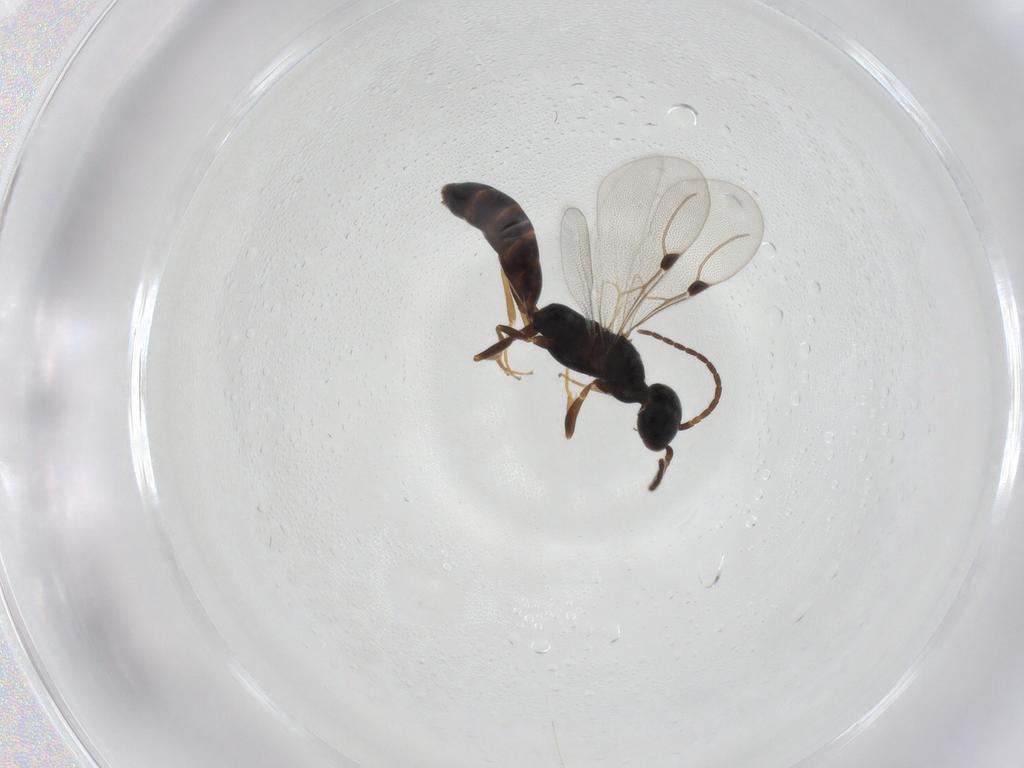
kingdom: Animalia
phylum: Arthropoda
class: Insecta
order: Hymenoptera
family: Bethylidae
